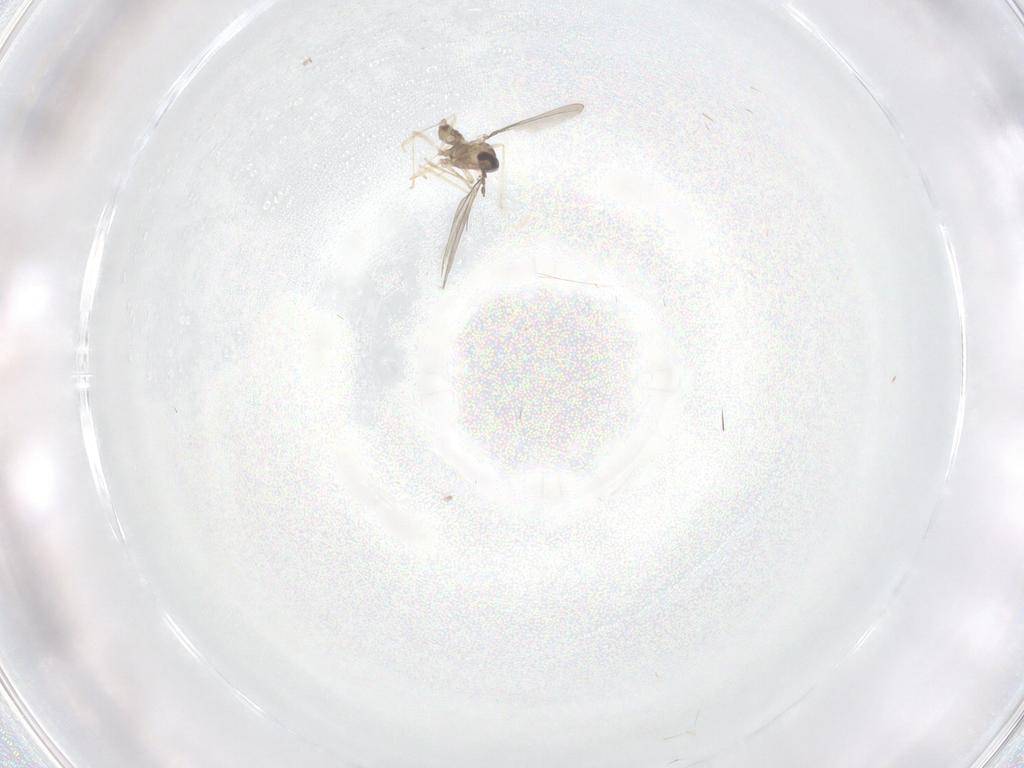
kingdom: Animalia
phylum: Arthropoda
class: Insecta
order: Diptera
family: Cecidomyiidae
